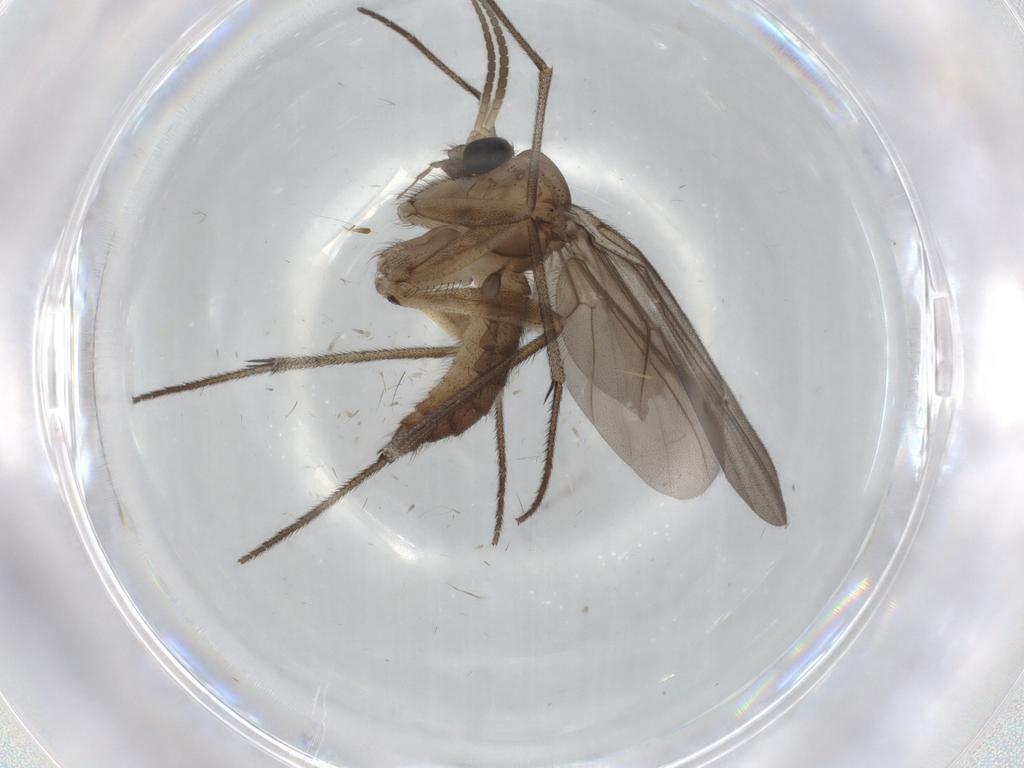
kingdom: Animalia
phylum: Arthropoda
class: Insecta
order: Diptera
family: Diadocidiidae
